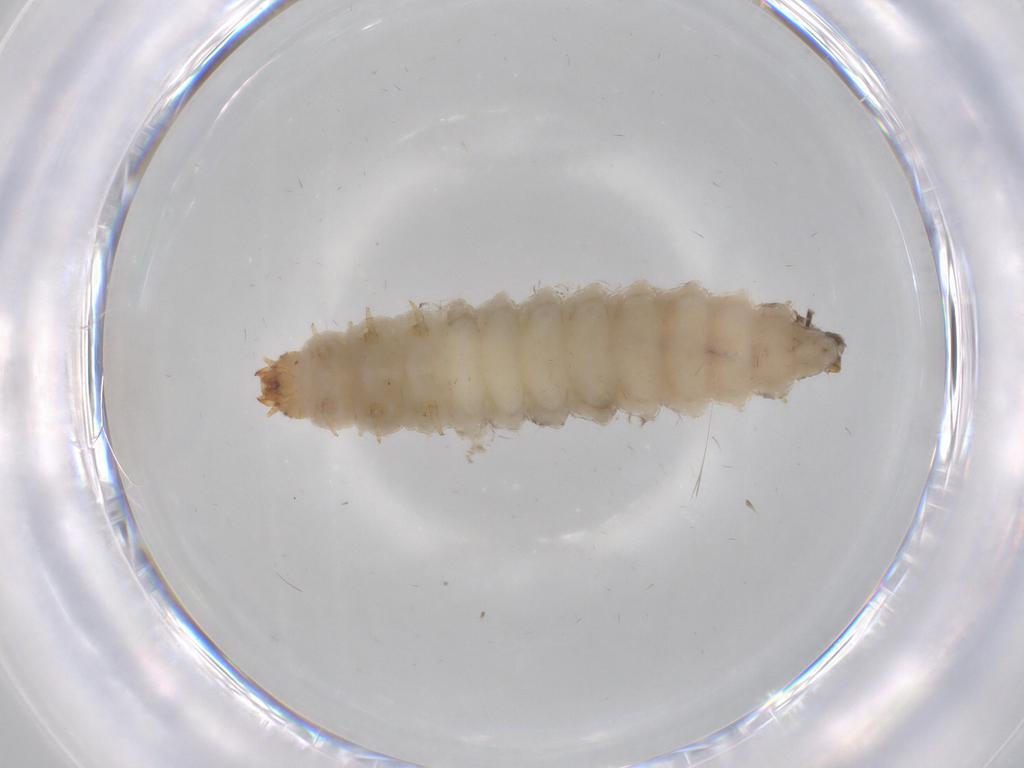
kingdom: Animalia
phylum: Arthropoda
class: Insecta
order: Coleoptera
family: Nitidulidae
